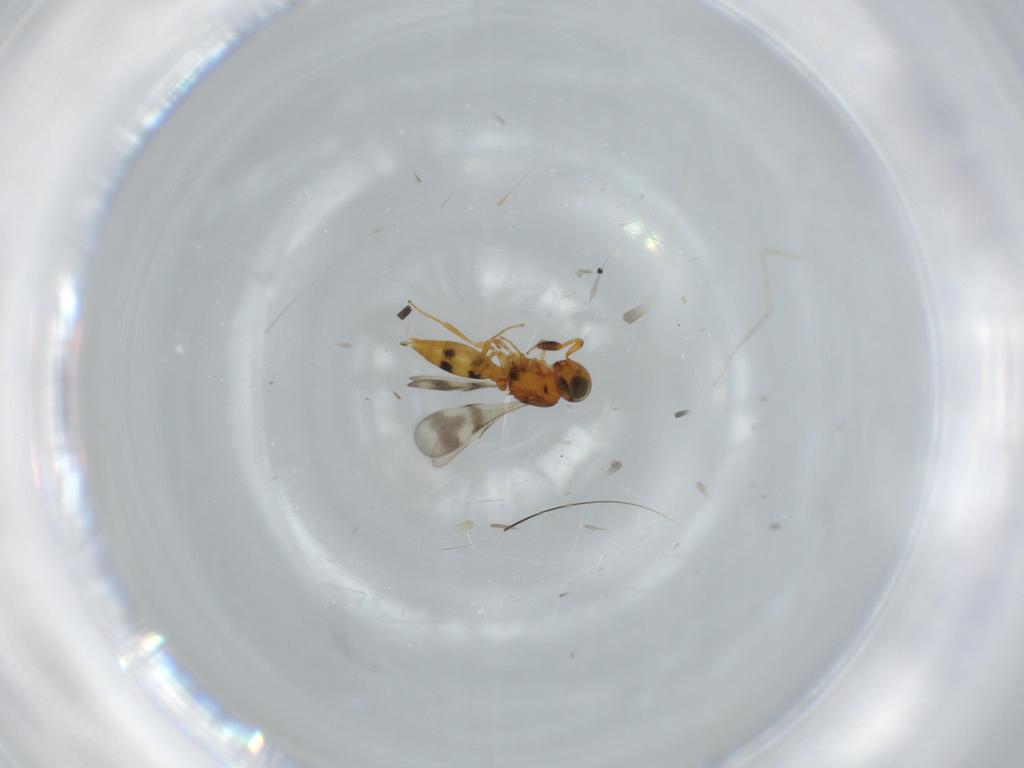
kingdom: Animalia
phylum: Arthropoda
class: Insecta
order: Hymenoptera
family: Scelionidae
